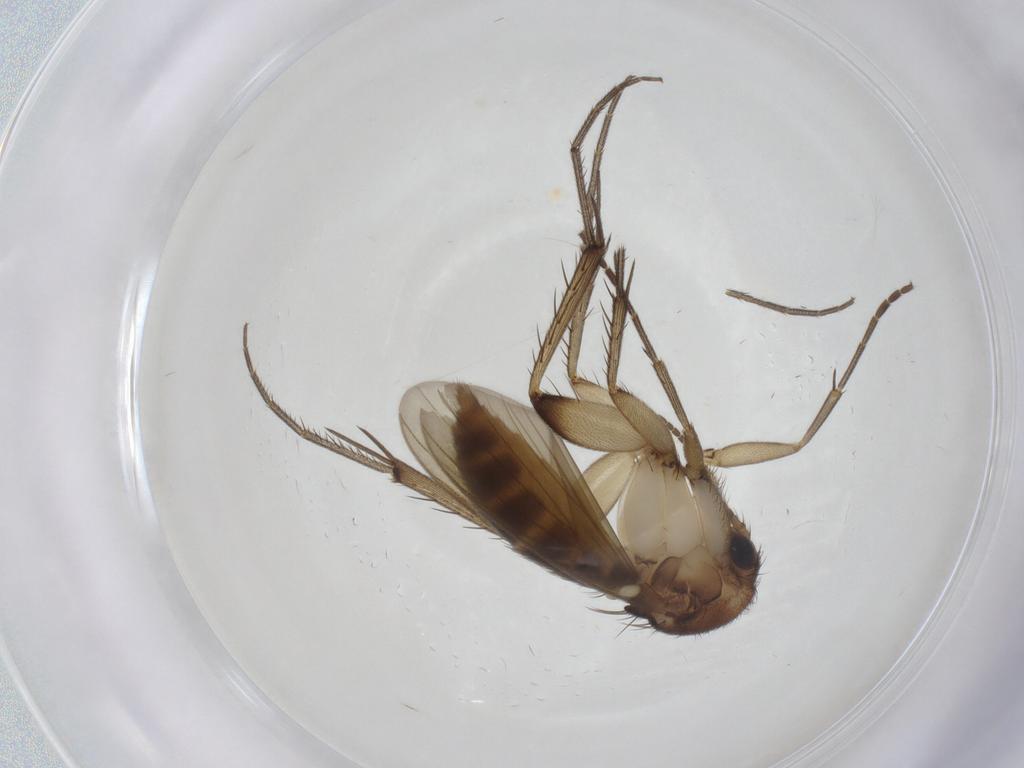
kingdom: Animalia
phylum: Arthropoda
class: Insecta
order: Diptera
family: Mycetophilidae
